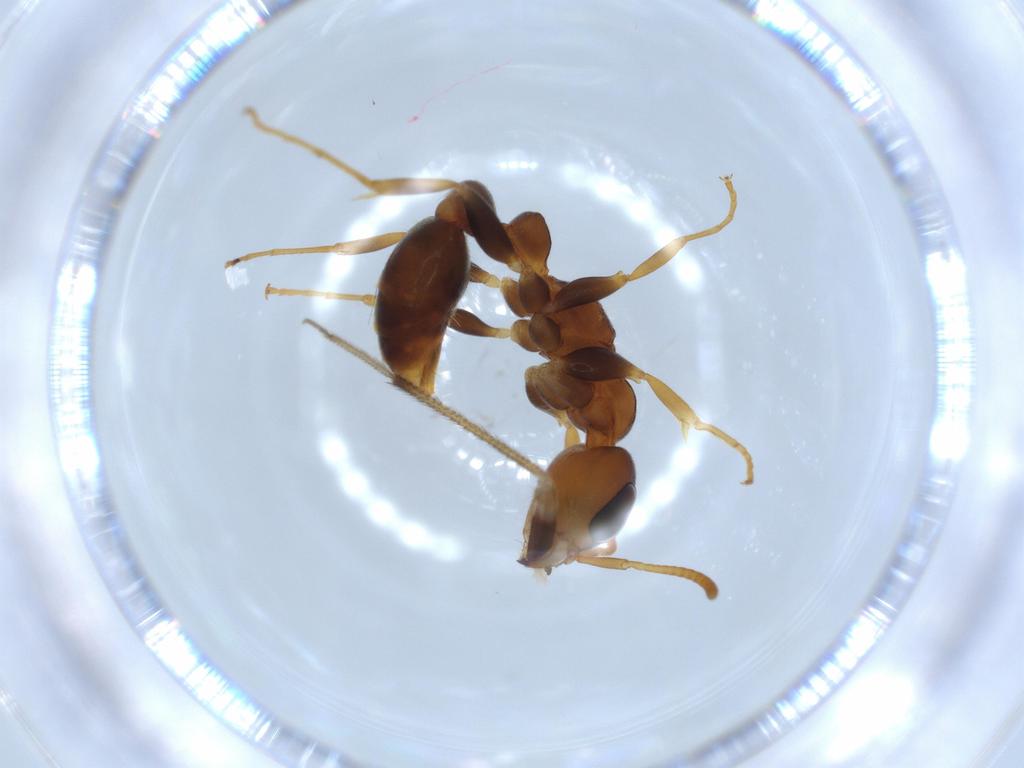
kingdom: Animalia
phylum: Arthropoda
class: Insecta
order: Hymenoptera
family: Formicidae
